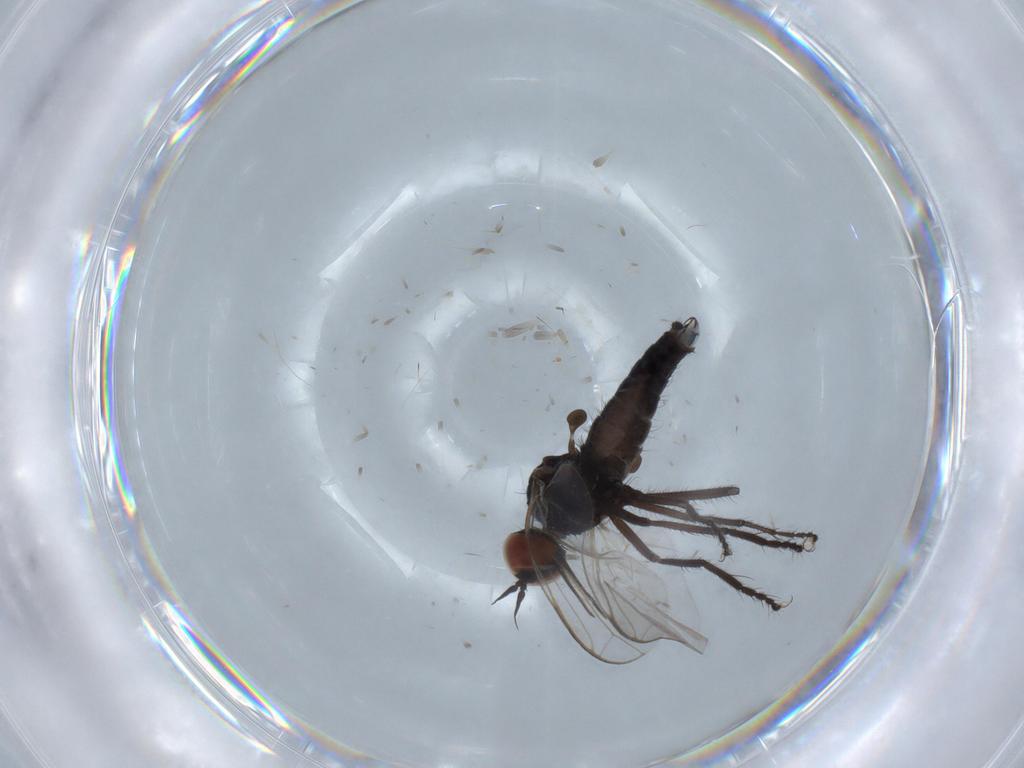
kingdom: Animalia
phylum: Arthropoda
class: Insecta
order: Diptera
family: Empididae
